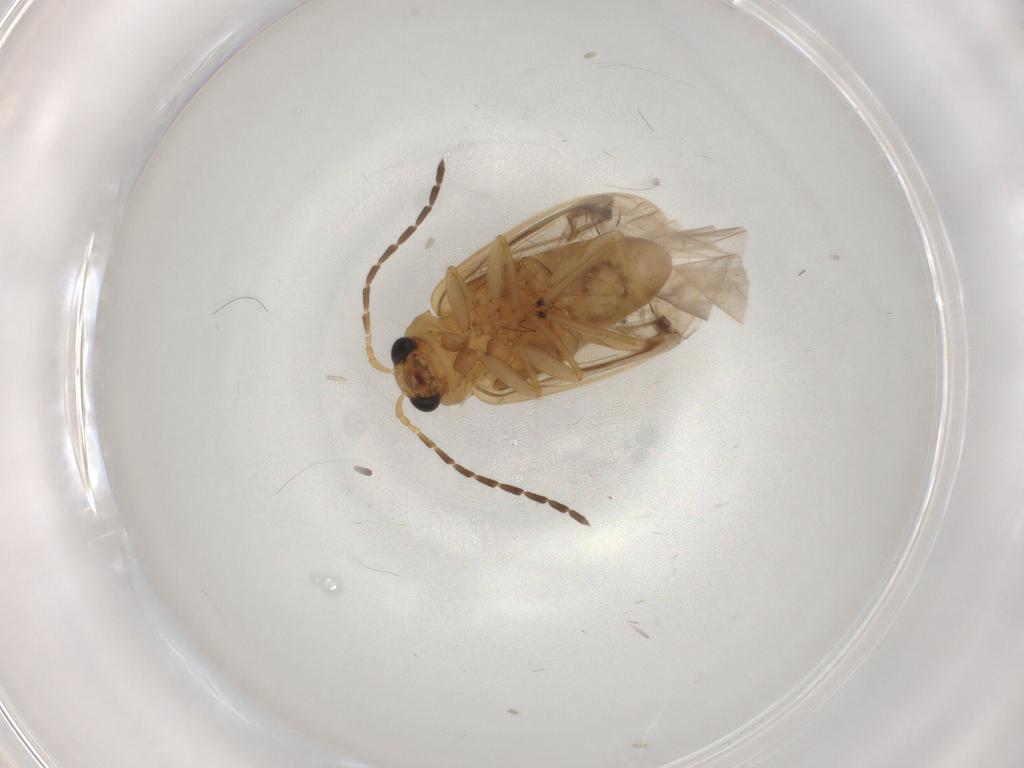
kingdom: Animalia
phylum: Arthropoda
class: Insecta
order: Coleoptera
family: Chrysomelidae
